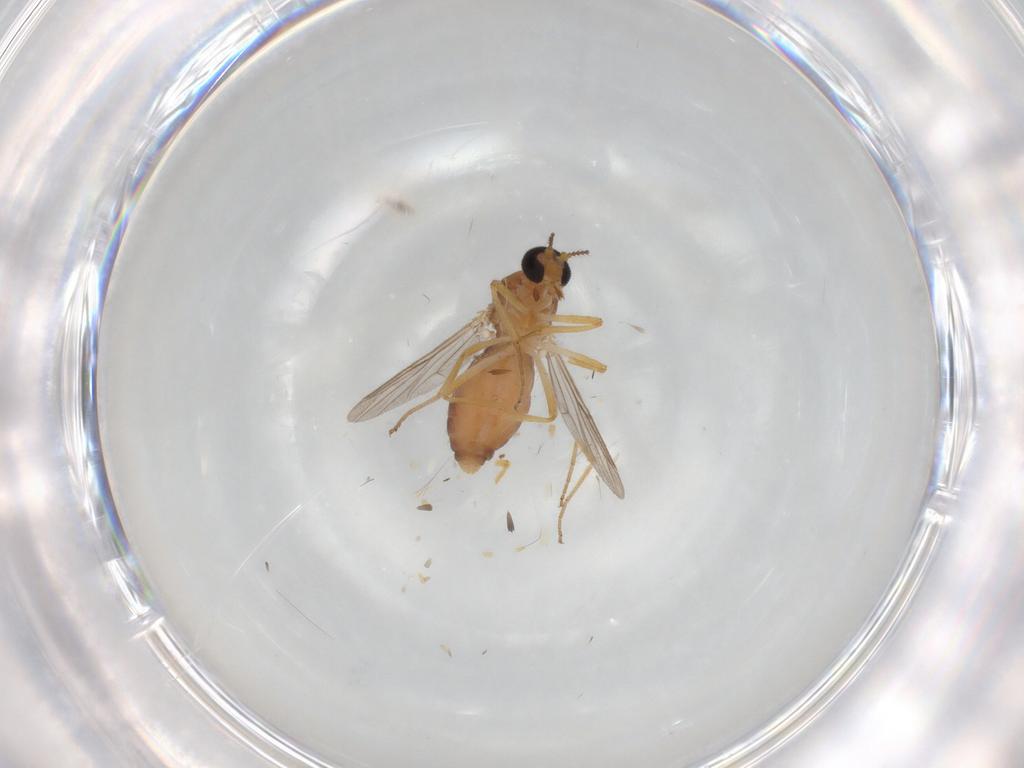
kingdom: Animalia
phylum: Arthropoda
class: Insecta
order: Diptera
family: Ceratopogonidae
